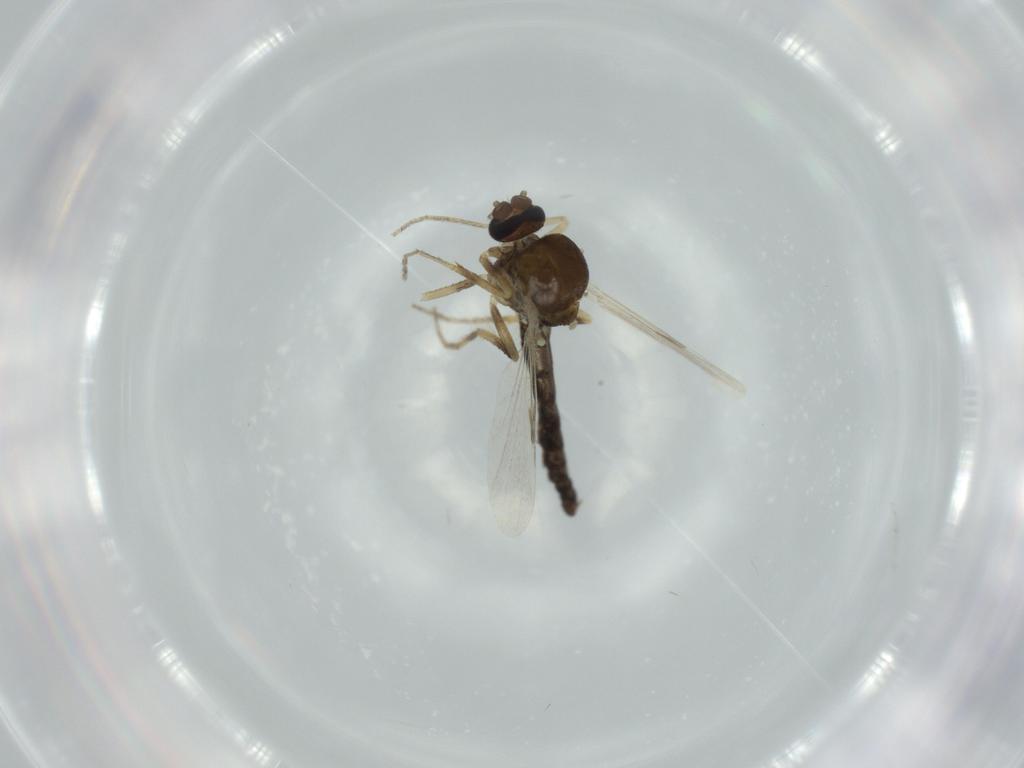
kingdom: Animalia
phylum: Arthropoda
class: Insecta
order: Diptera
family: Ceratopogonidae
